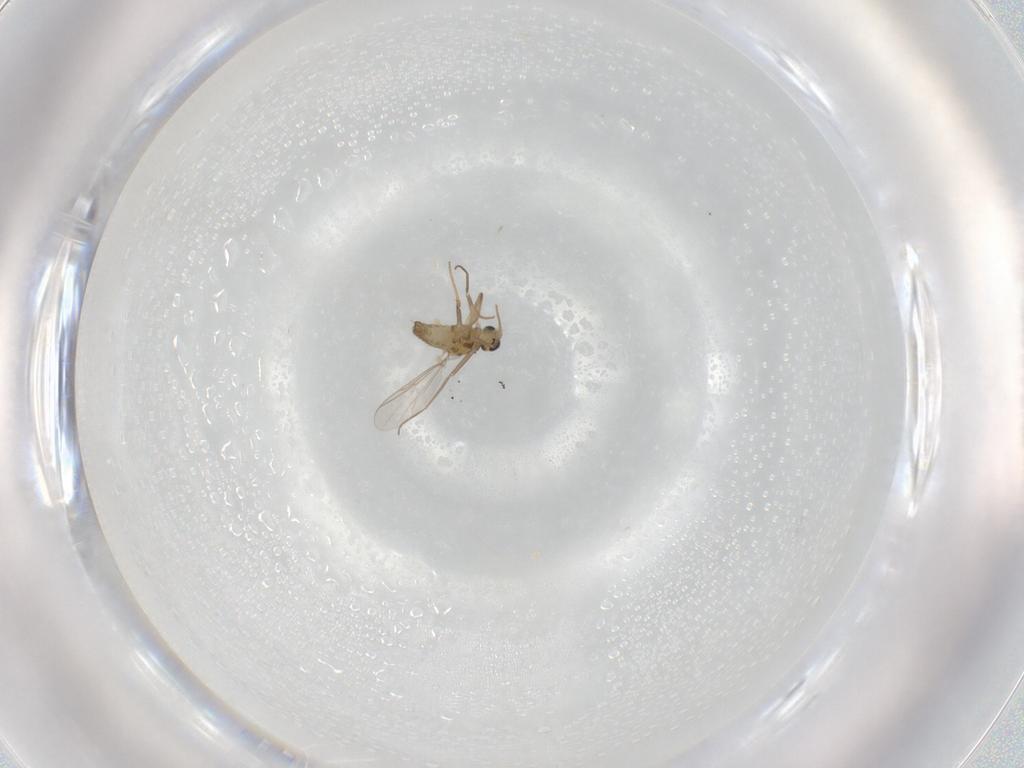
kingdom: Animalia
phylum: Arthropoda
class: Insecta
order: Diptera
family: Chironomidae
